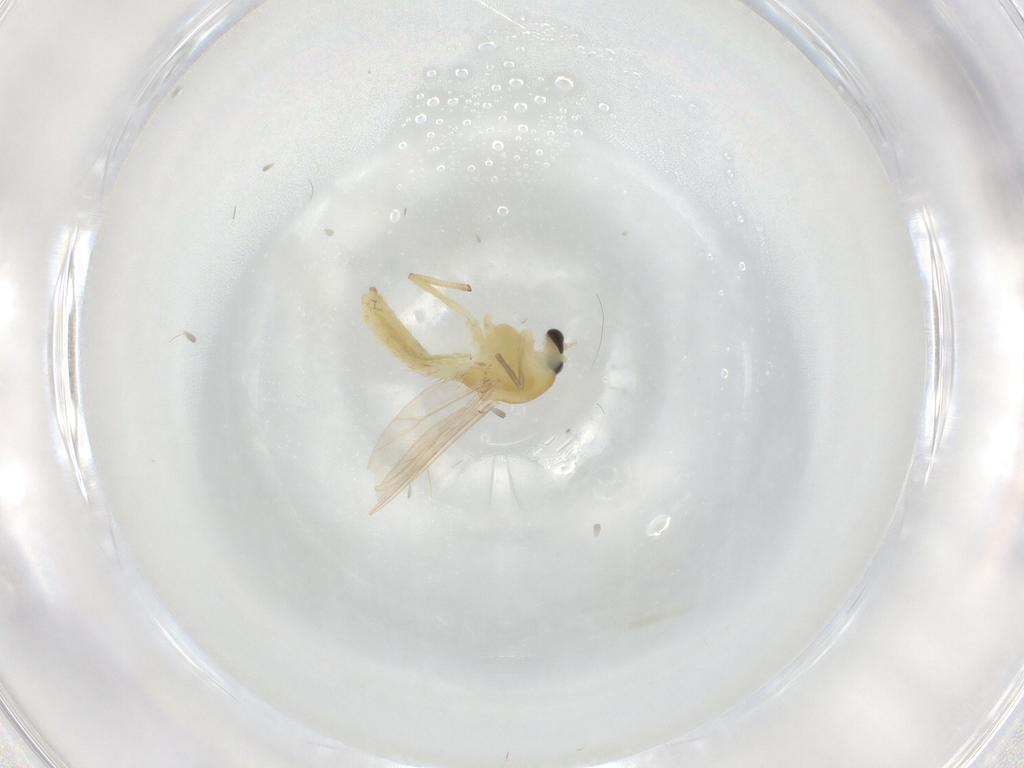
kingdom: Animalia
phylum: Arthropoda
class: Insecta
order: Diptera
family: Chironomidae
